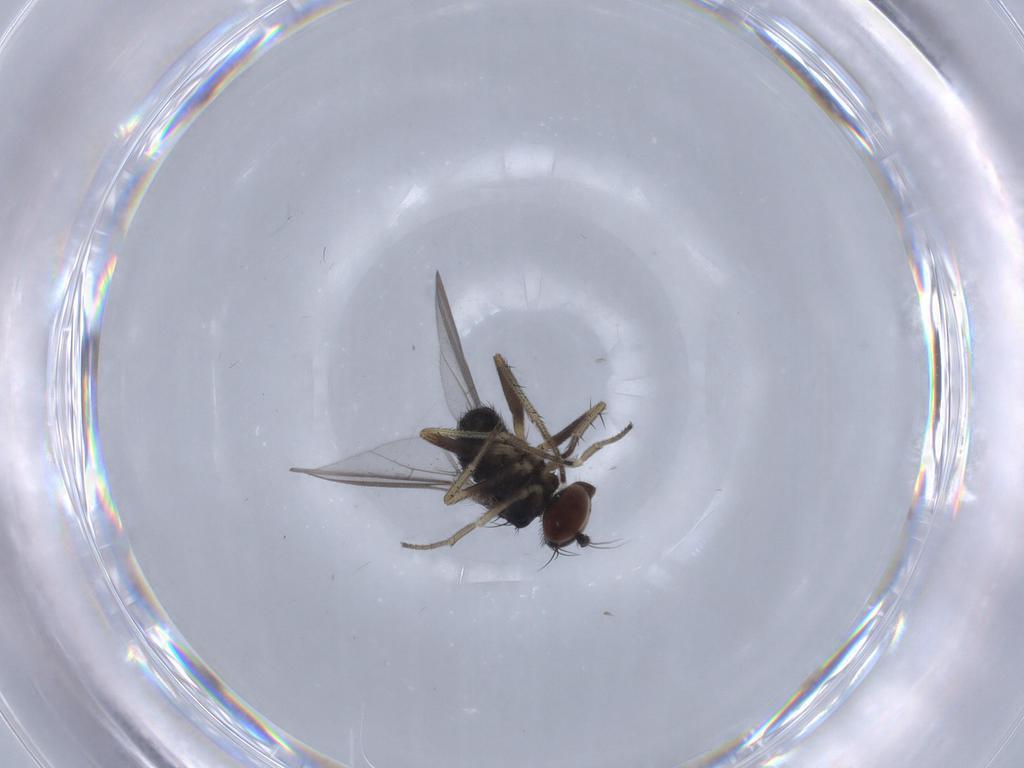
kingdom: Animalia
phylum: Arthropoda
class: Insecta
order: Diptera
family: Dolichopodidae
